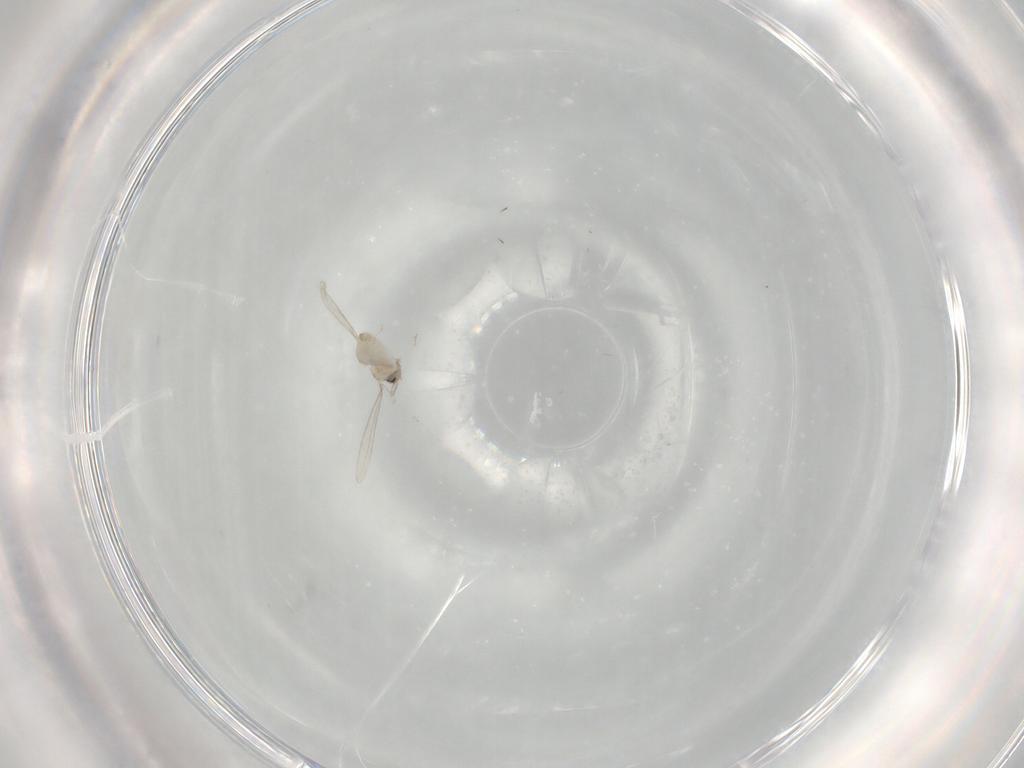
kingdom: Animalia
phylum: Arthropoda
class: Insecta
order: Diptera
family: Cecidomyiidae
